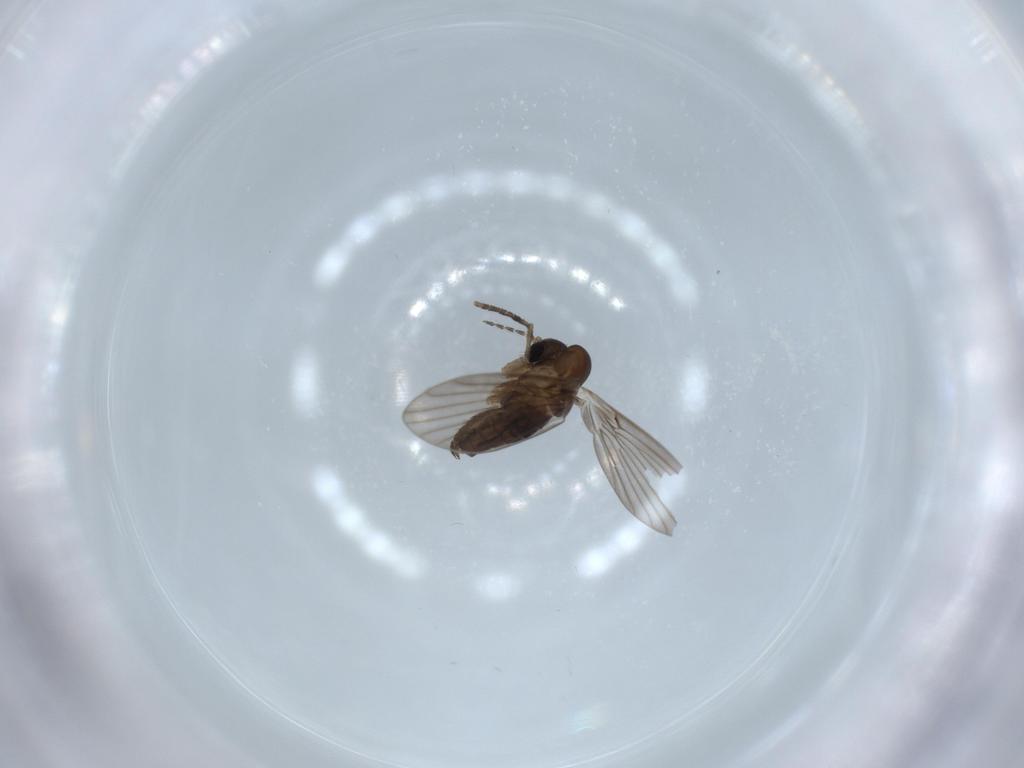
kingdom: Animalia
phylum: Arthropoda
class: Insecta
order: Diptera
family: Psychodidae
